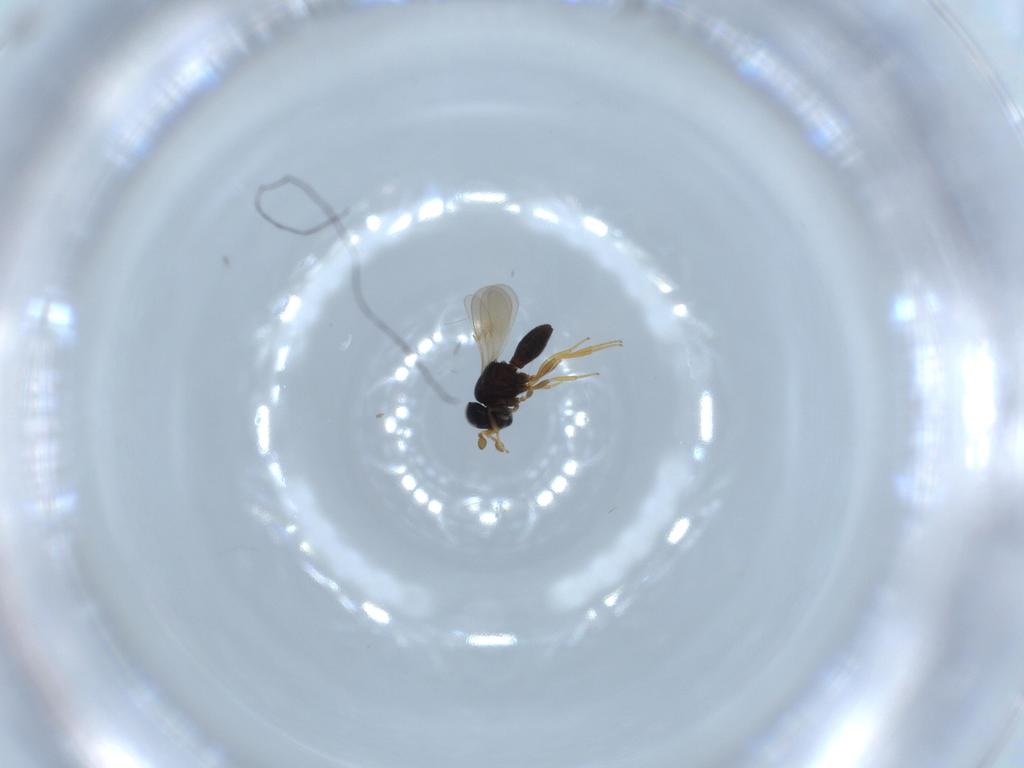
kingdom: Animalia
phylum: Arthropoda
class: Insecta
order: Hymenoptera
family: Scelionidae
